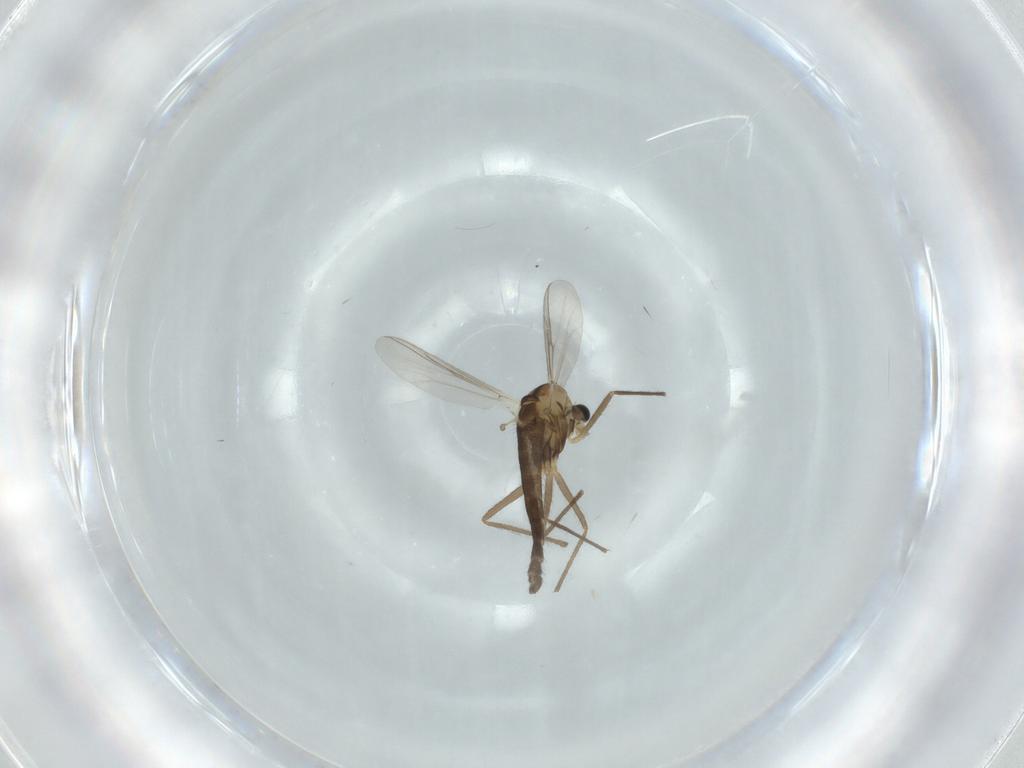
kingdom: Animalia
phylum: Arthropoda
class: Insecta
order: Diptera
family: Chironomidae
